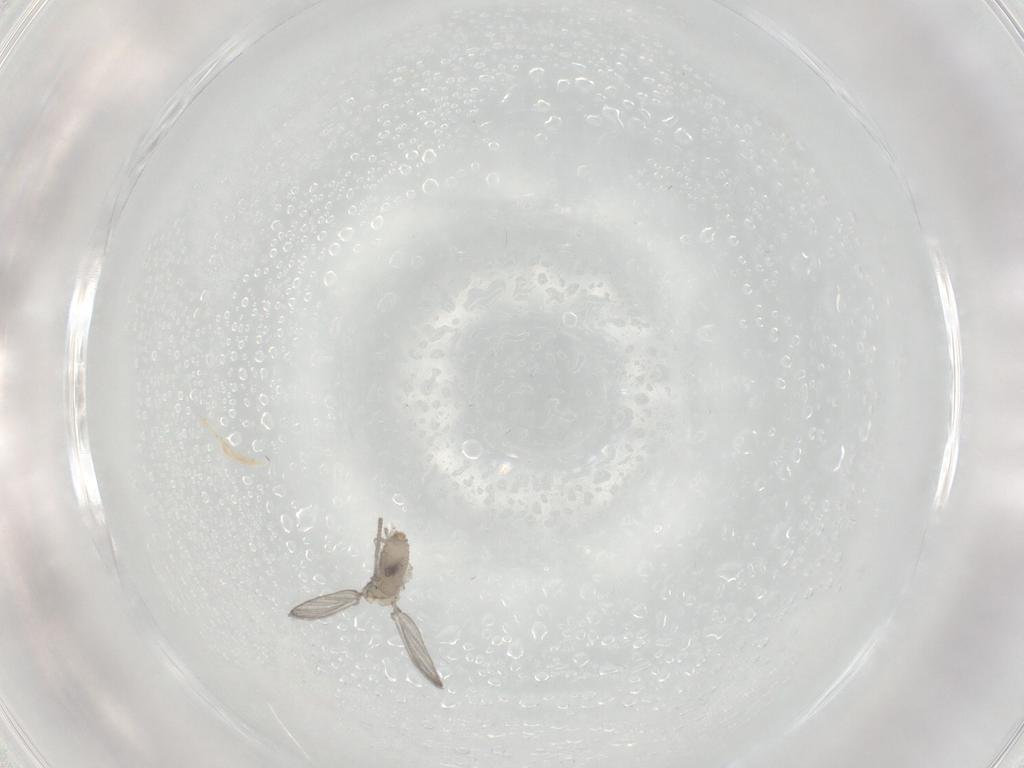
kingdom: Animalia
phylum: Arthropoda
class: Insecta
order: Diptera
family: Psychodidae
